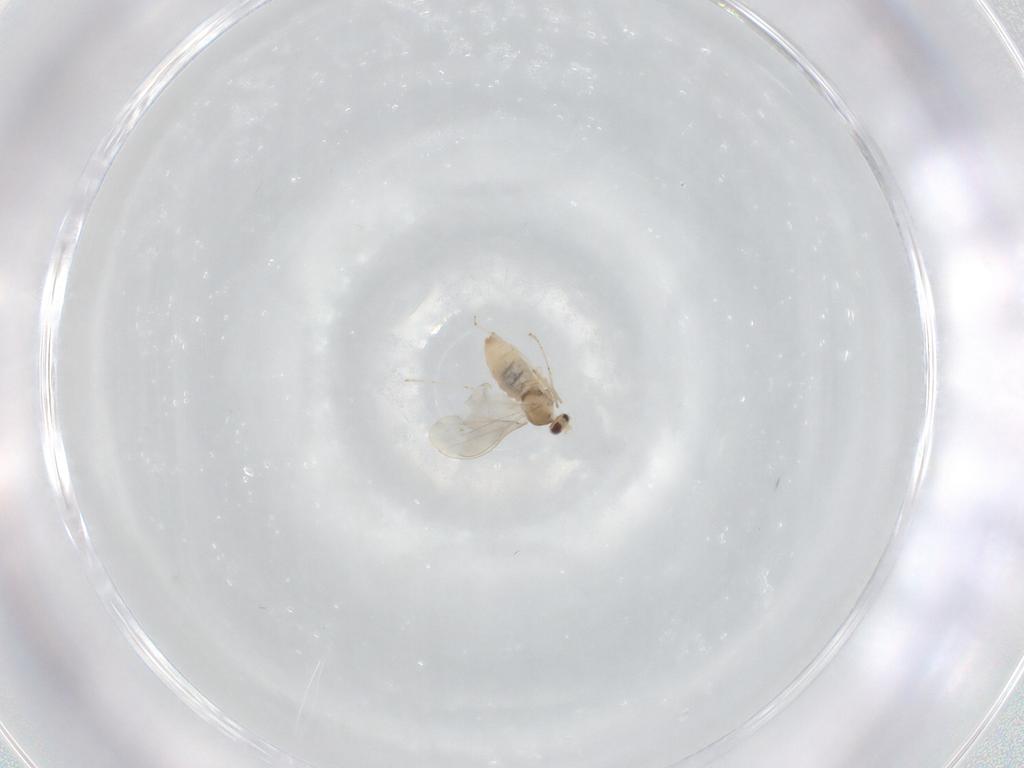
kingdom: Animalia
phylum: Arthropoda
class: Insecta
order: Diptera
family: Cecidomyiidae
